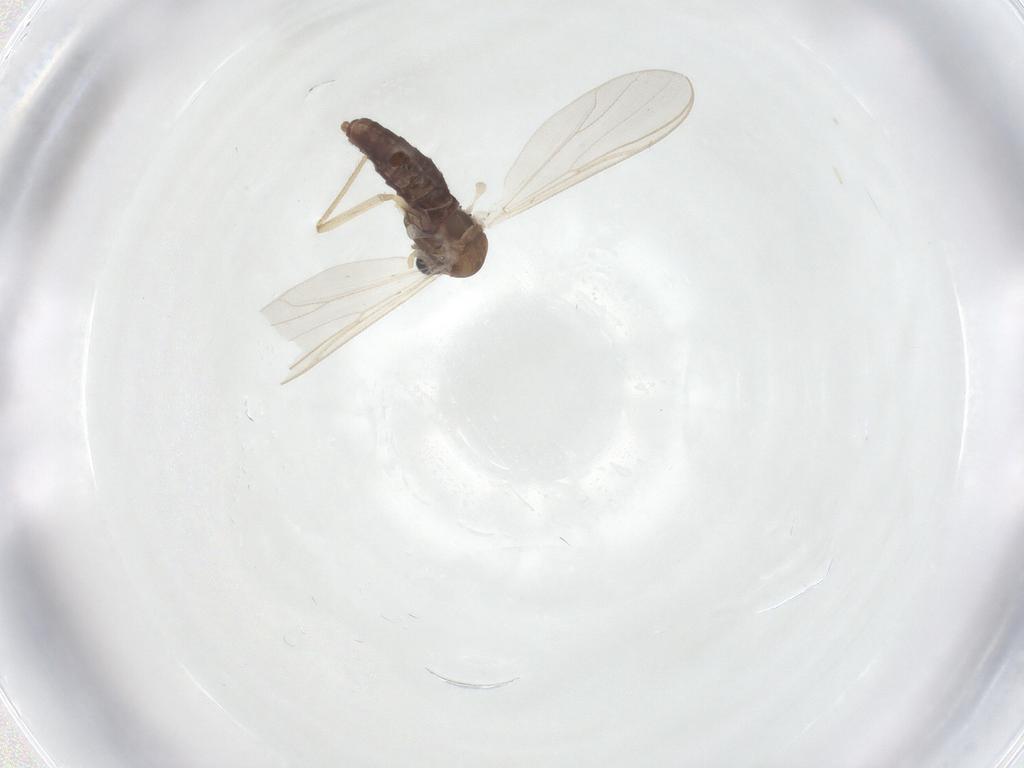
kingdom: Animalia
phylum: Arthropoda
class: Insecta
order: Diptera
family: Chironomidae
